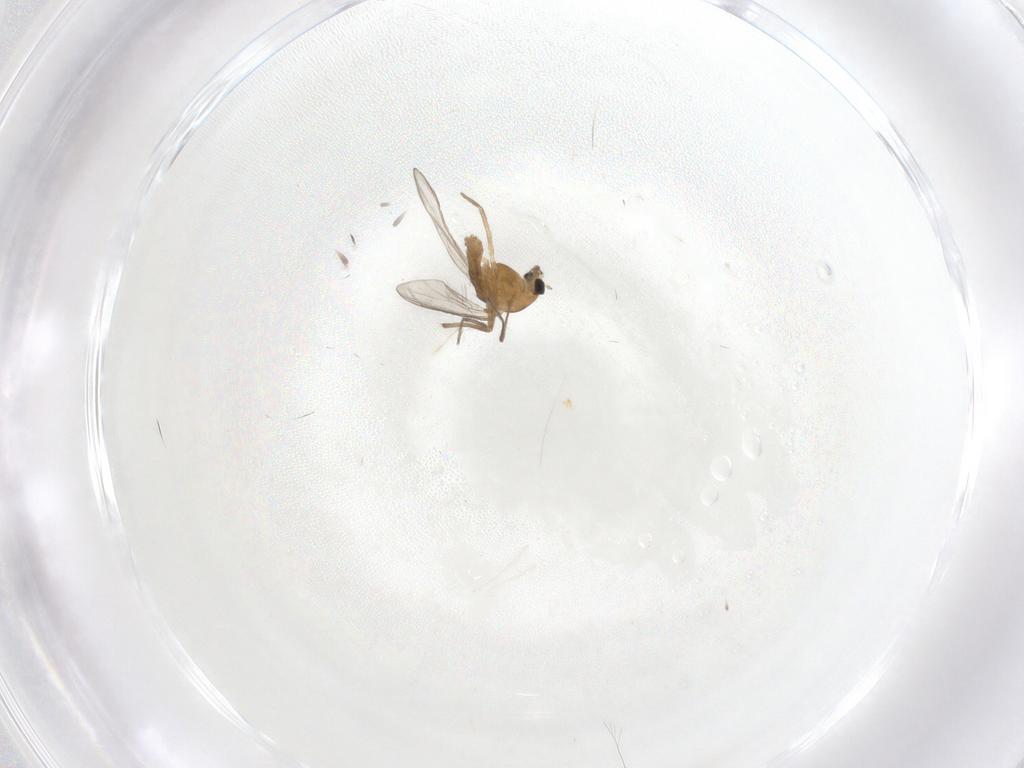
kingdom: Animalia
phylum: Arthropoda
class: Insecta
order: Diptera
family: Chironomidae
